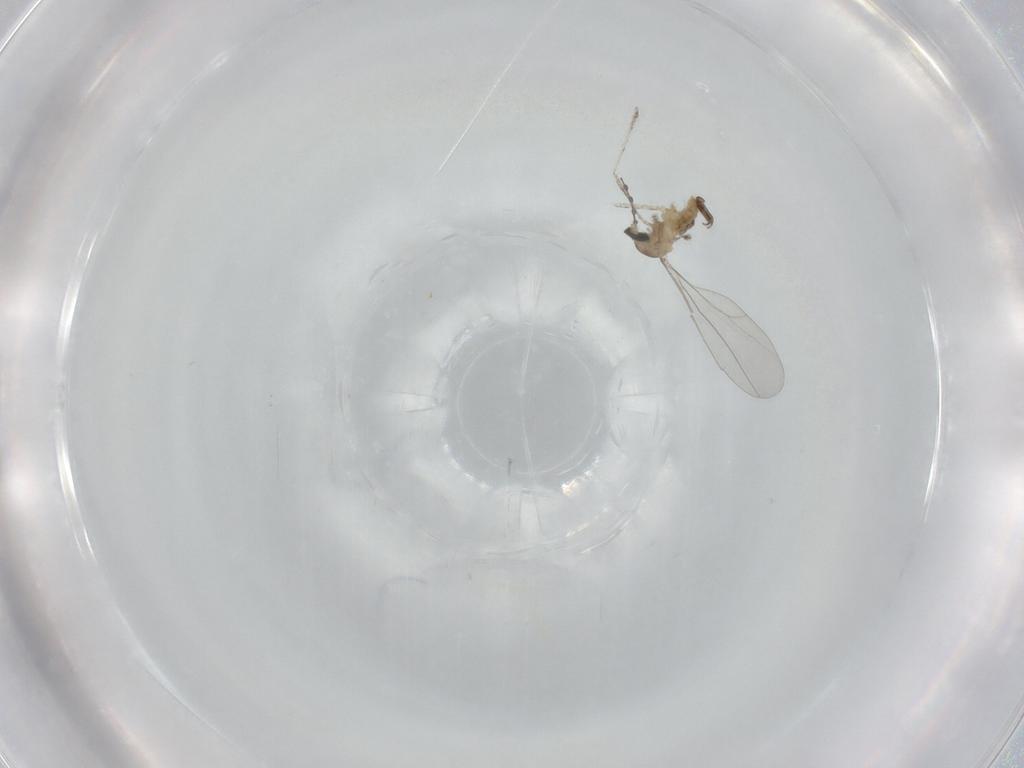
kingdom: Animalia
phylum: Arthropoda
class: Insecta
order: Diptera
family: Cecidomyiidae
